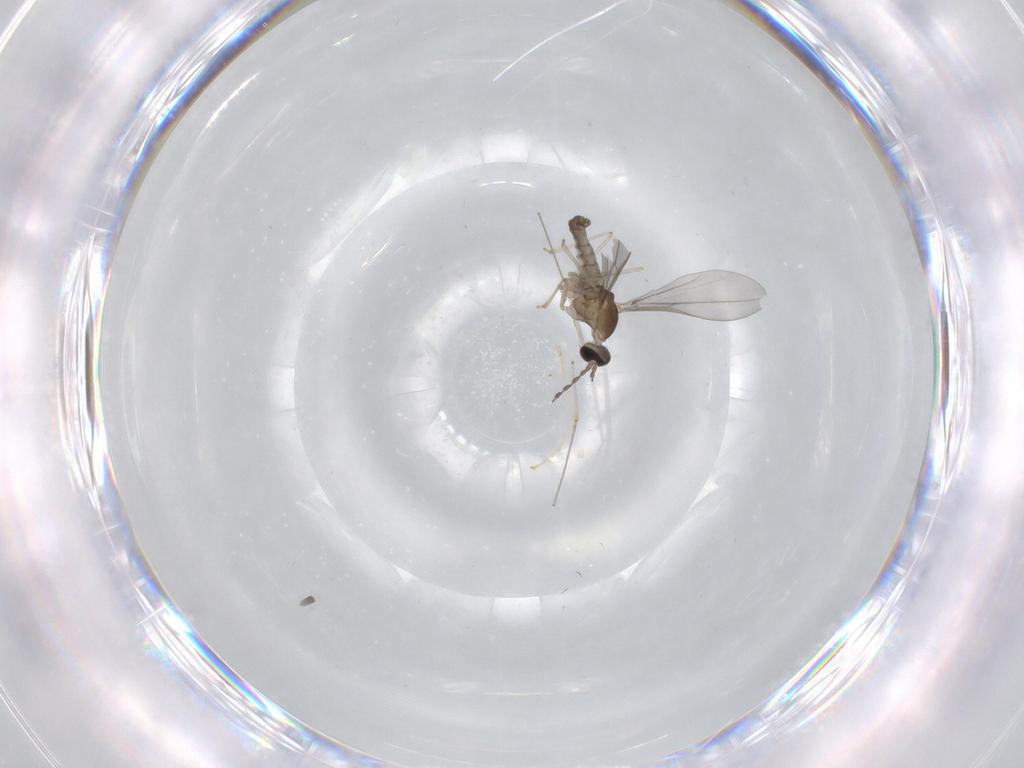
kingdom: Animalia
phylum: Arthropoda
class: Insecta
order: Diptera
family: Cecidomyiidae
